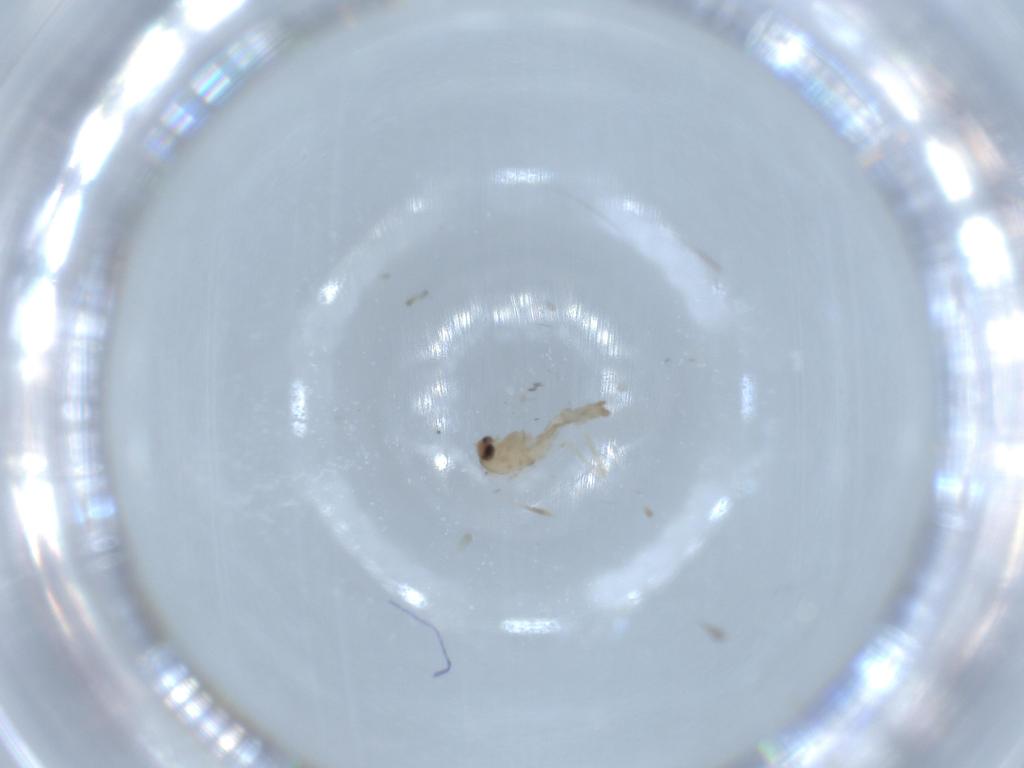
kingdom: Animalia
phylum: Arthropoda
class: Insecta
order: Diptera
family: Cecidomyiidae
